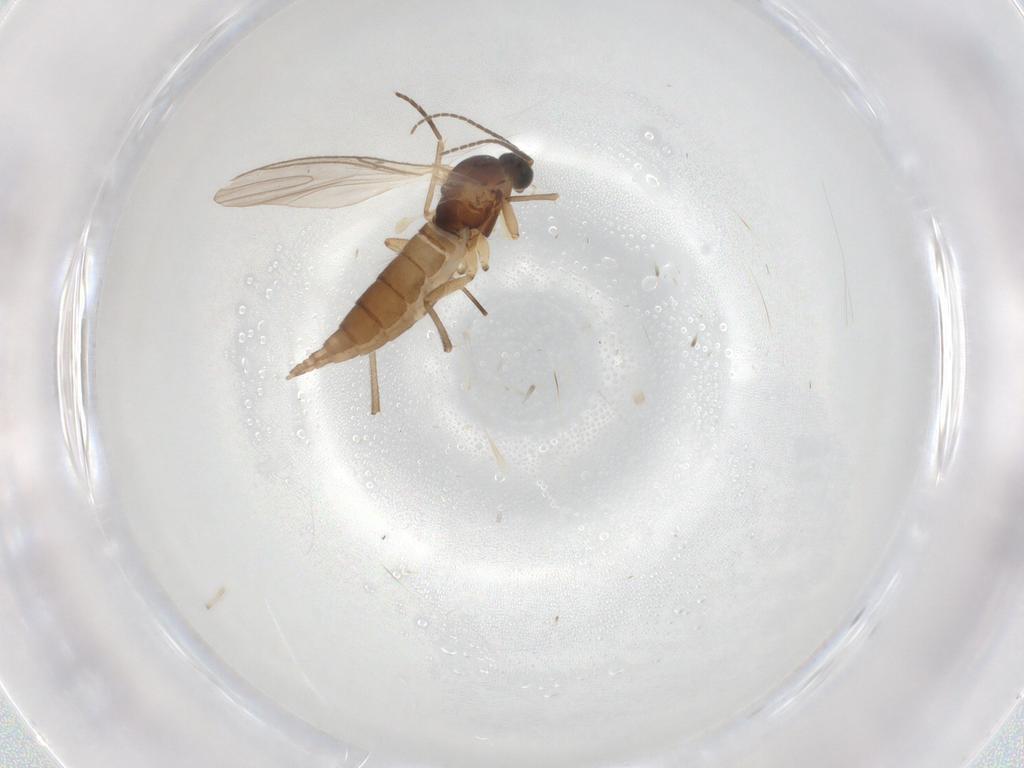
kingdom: Animalia
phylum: Arthropoda
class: Insecta
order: Diptera
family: Sciaridae
